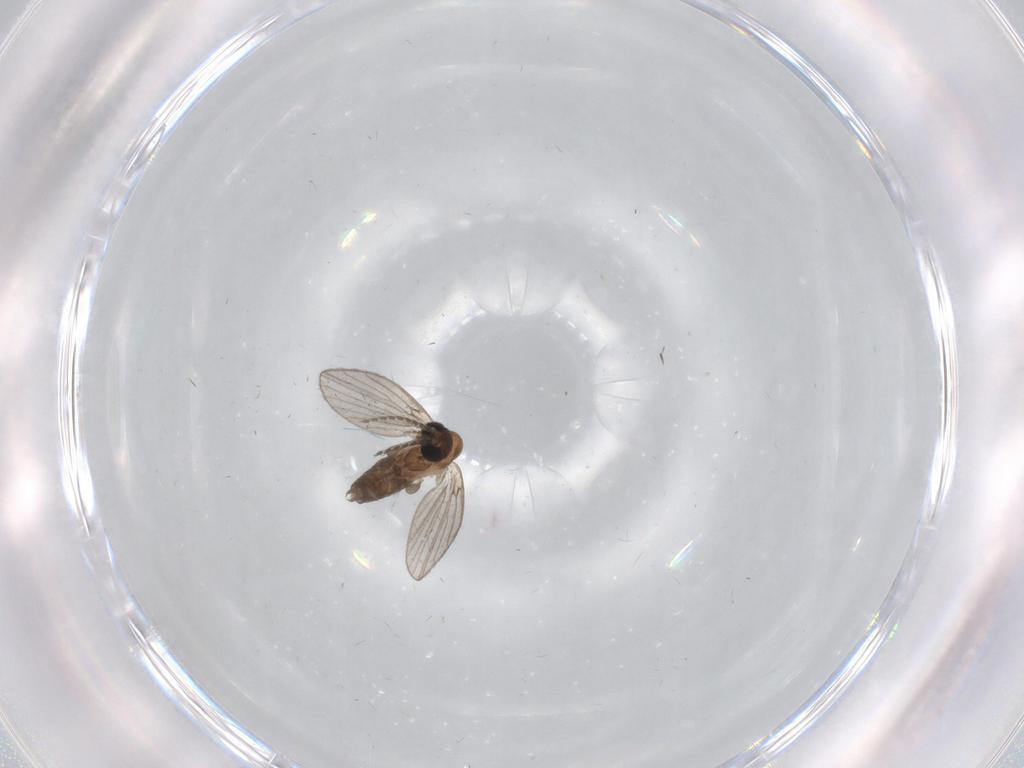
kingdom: Animalia
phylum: Arthropoda
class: Insecta
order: Diptera
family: Psychodidae
